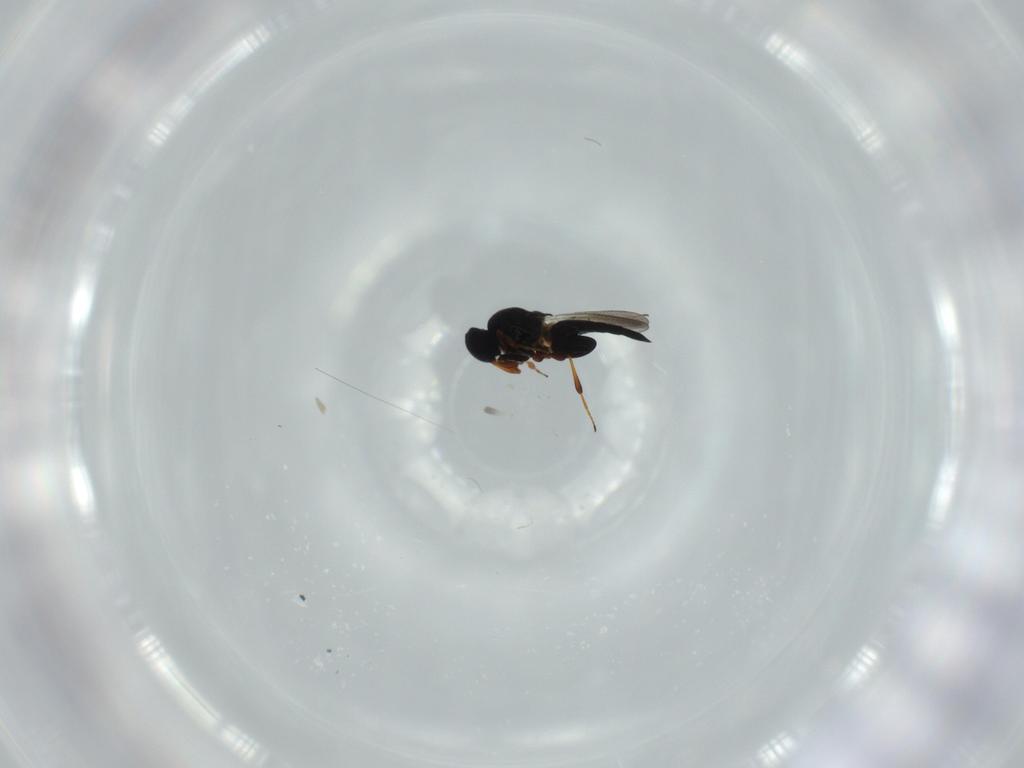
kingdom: Animalia
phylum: Arthropoda
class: Insecta
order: Hymenoptera
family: Platygastridae
